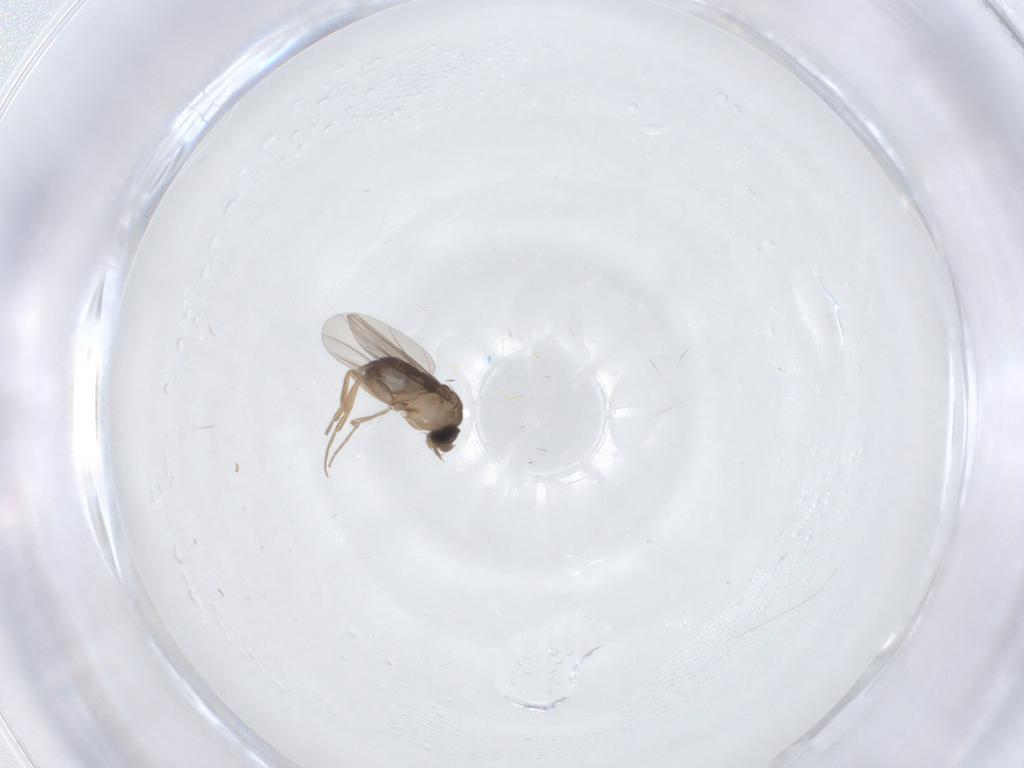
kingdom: Animalia
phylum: Arthropoda
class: Insecta
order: Diptera
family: Phoridae
